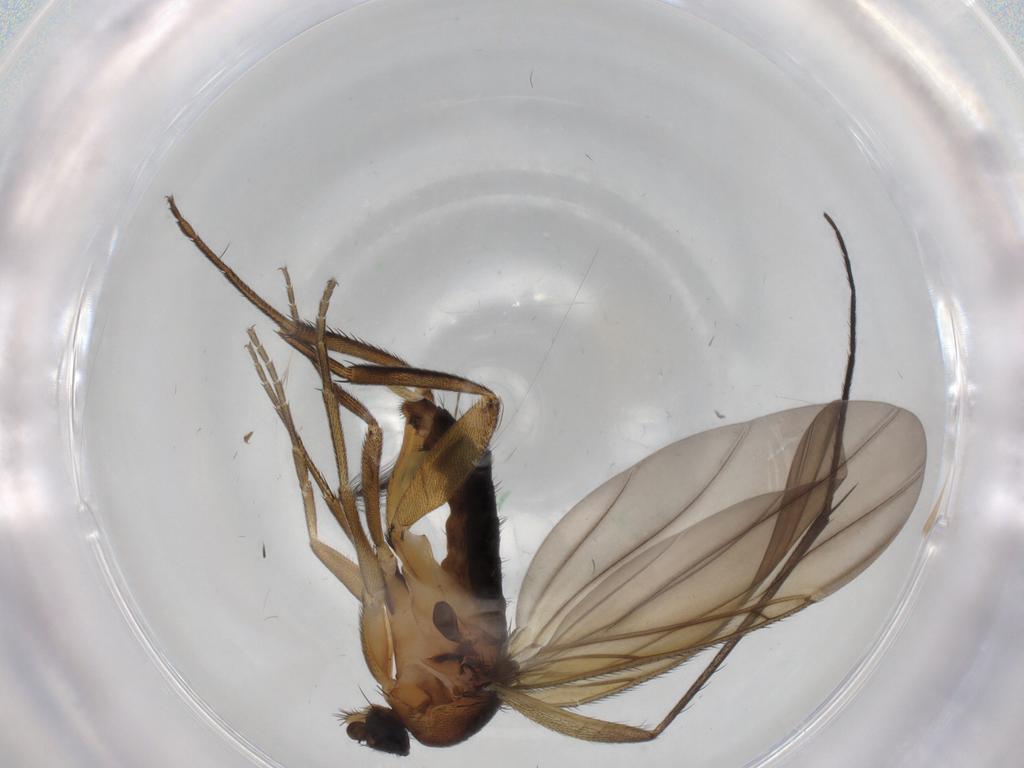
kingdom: Animalia
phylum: Arthropoda
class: Insecta
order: Diptera
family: Phoridae
